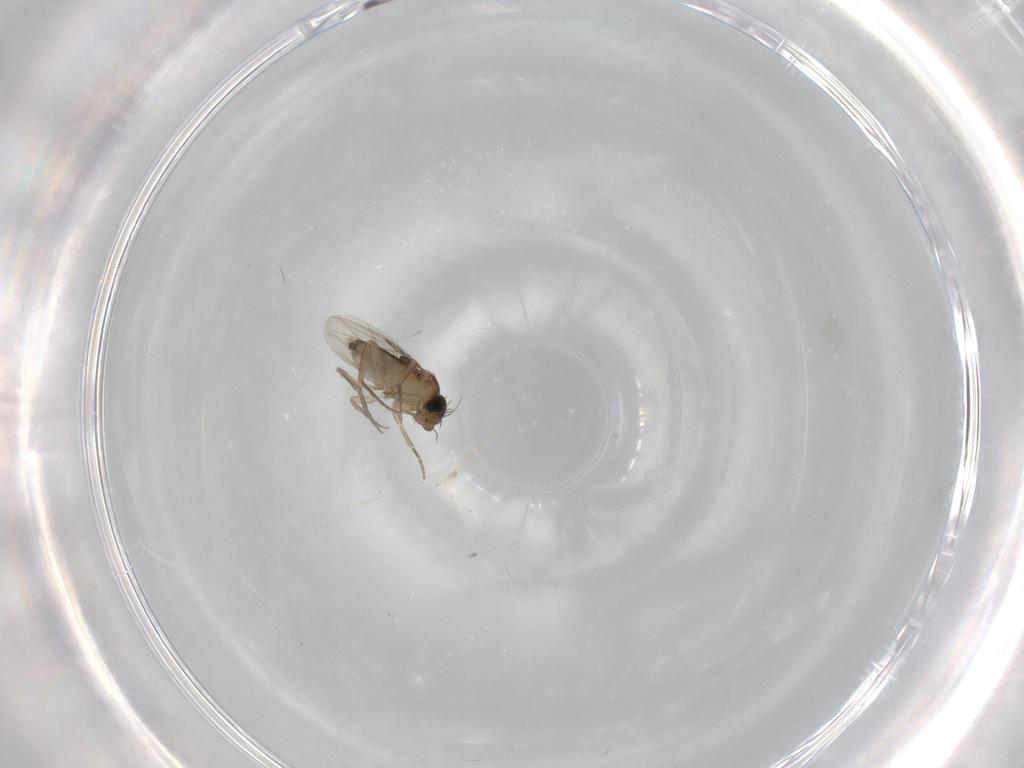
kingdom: Animalia
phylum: Arthropoda
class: Insecta
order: Diptera
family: Phoridae
